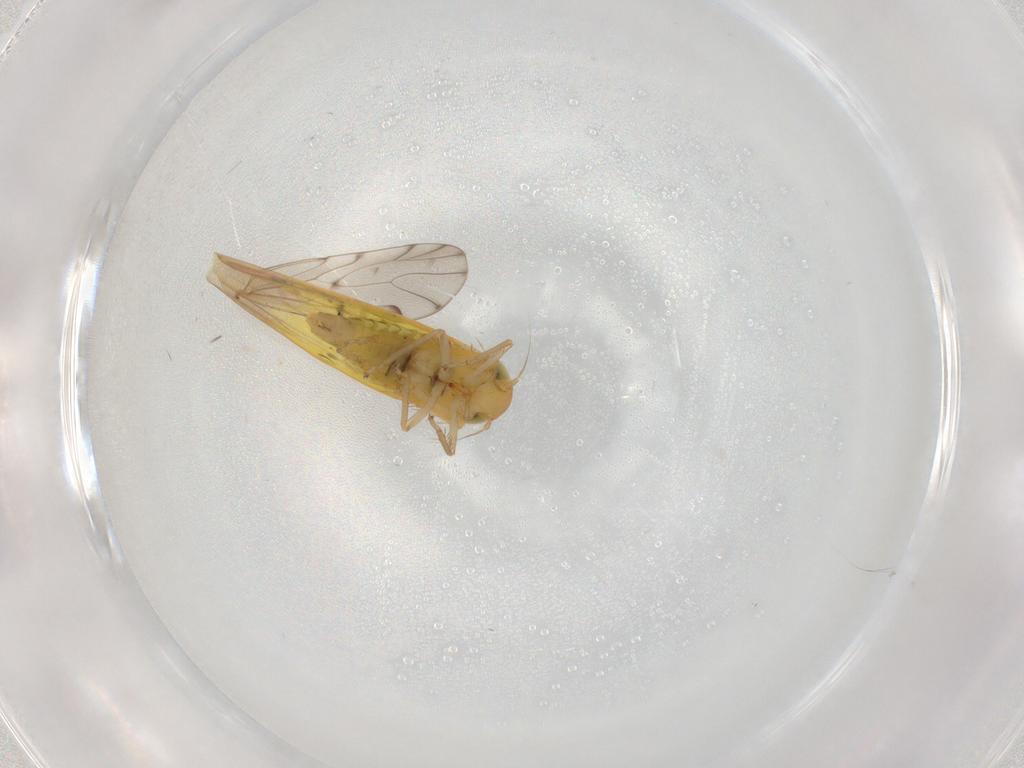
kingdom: Animalia
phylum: Arthropoda
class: Insecta
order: Hemiptera
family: Cicadellidae
